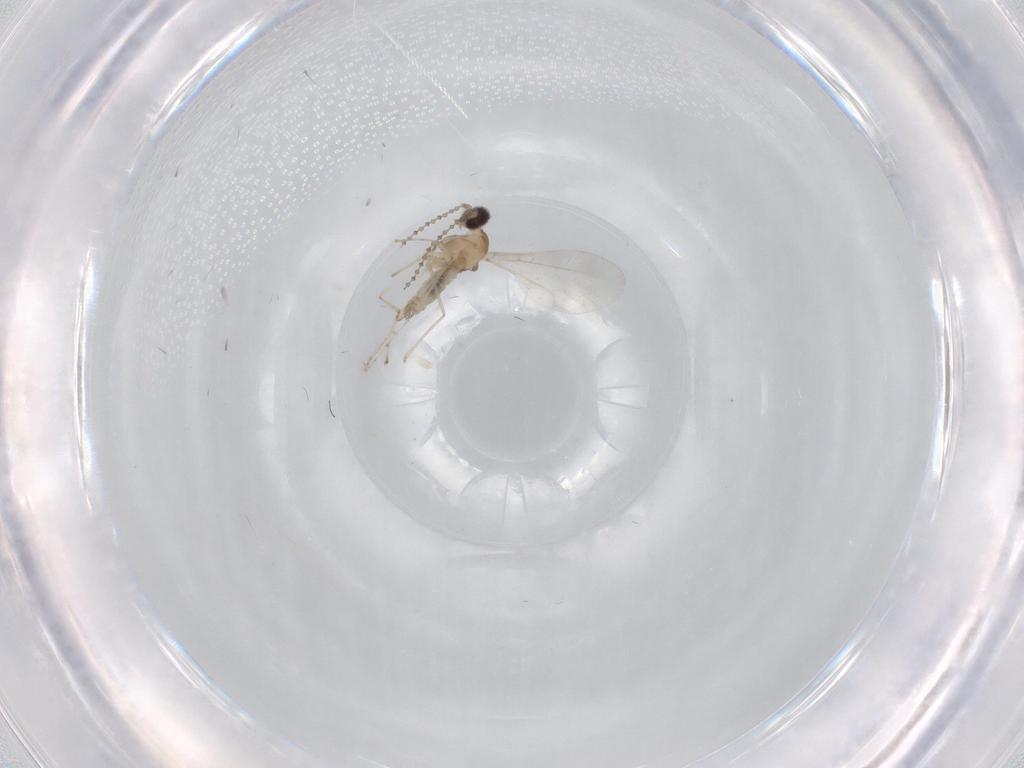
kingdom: Animalia
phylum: Arthropoda
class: Insecta
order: Diptera
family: Cecidomyiidae
